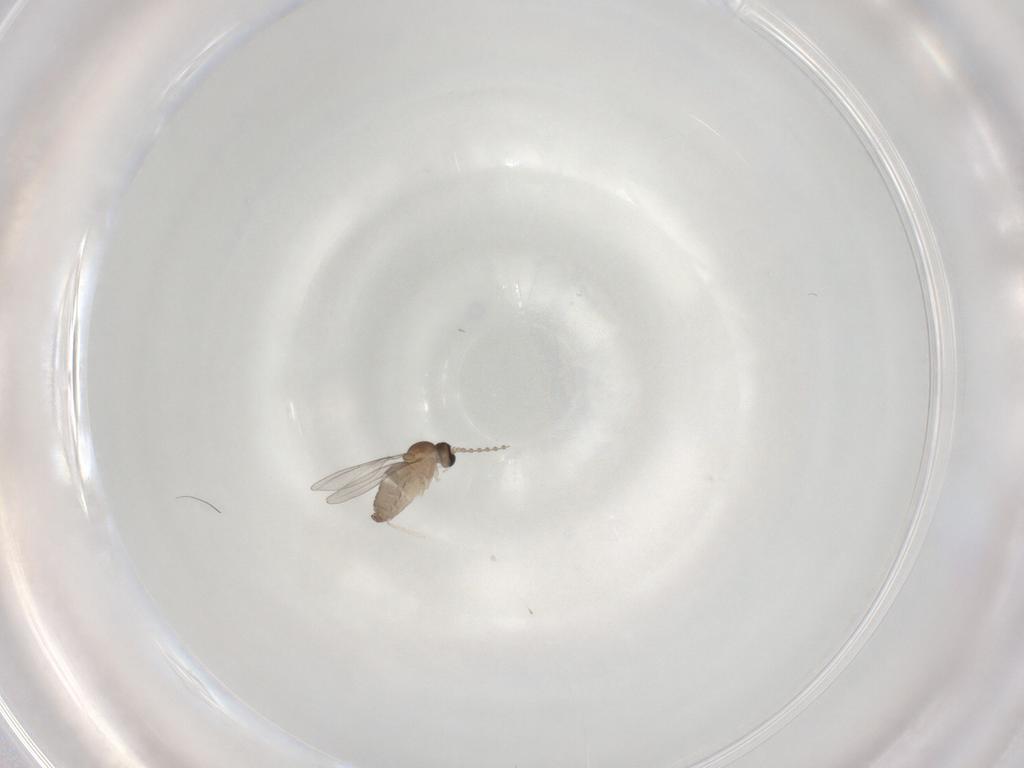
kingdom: Animalia
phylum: Arthropoda
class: Insecta
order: Diptera
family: Cecidomyiidae
